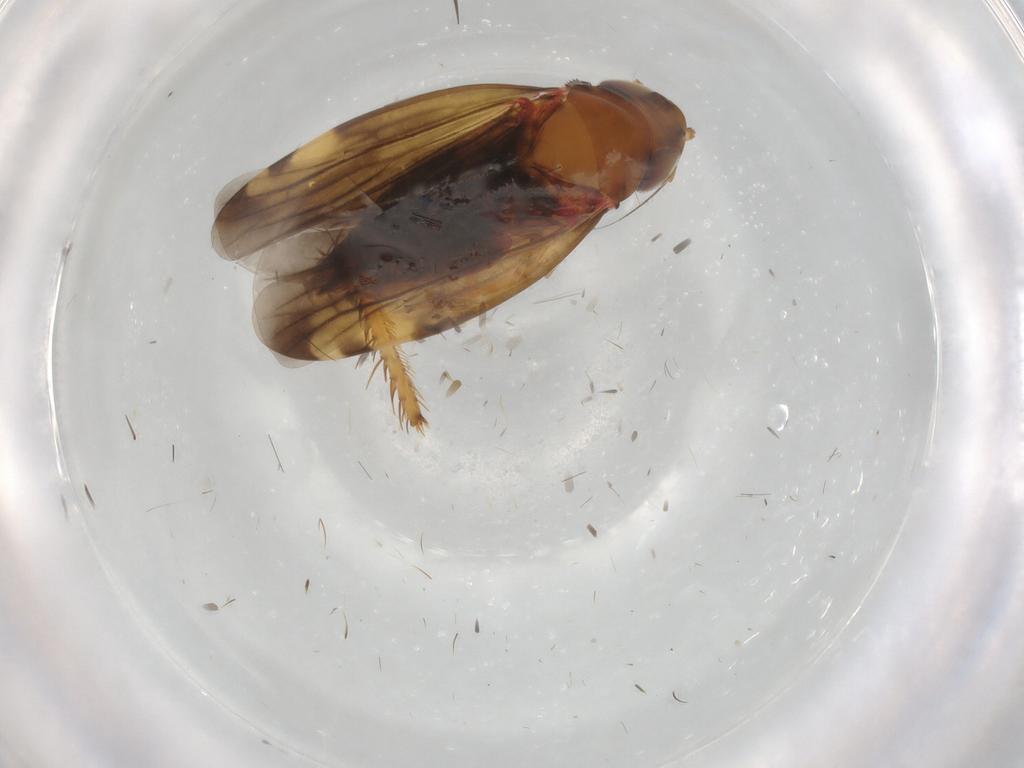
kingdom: Animalia
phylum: Arthropoda
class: Insecta
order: Hemiptera
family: Cicadellidae
